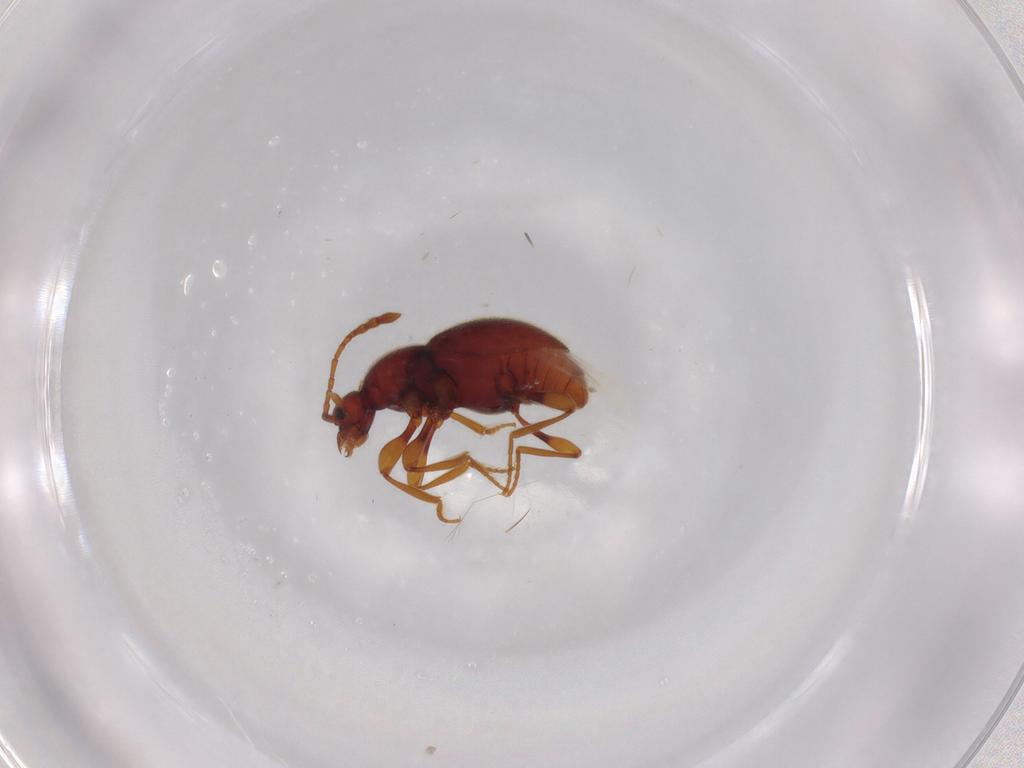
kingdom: Animalia
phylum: Arthropoda
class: Insecta
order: Coleoptera
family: Staphylinidae
